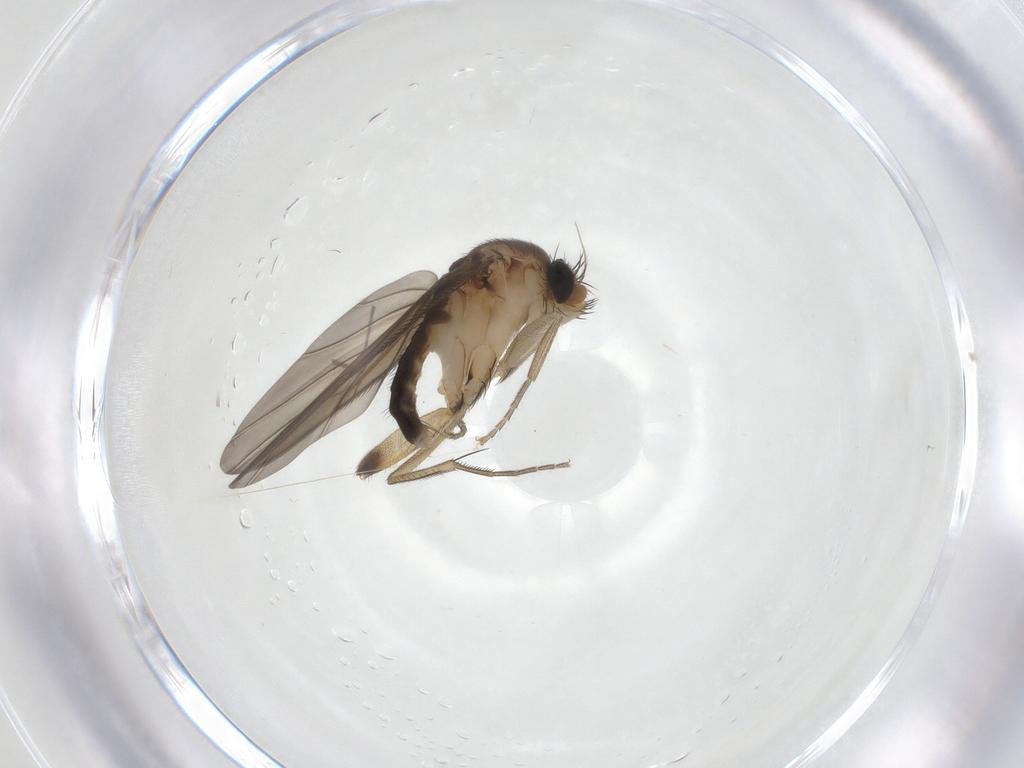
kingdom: Animalia
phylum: Arthropoda
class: Insecta
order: Diptera
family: Phoridae
